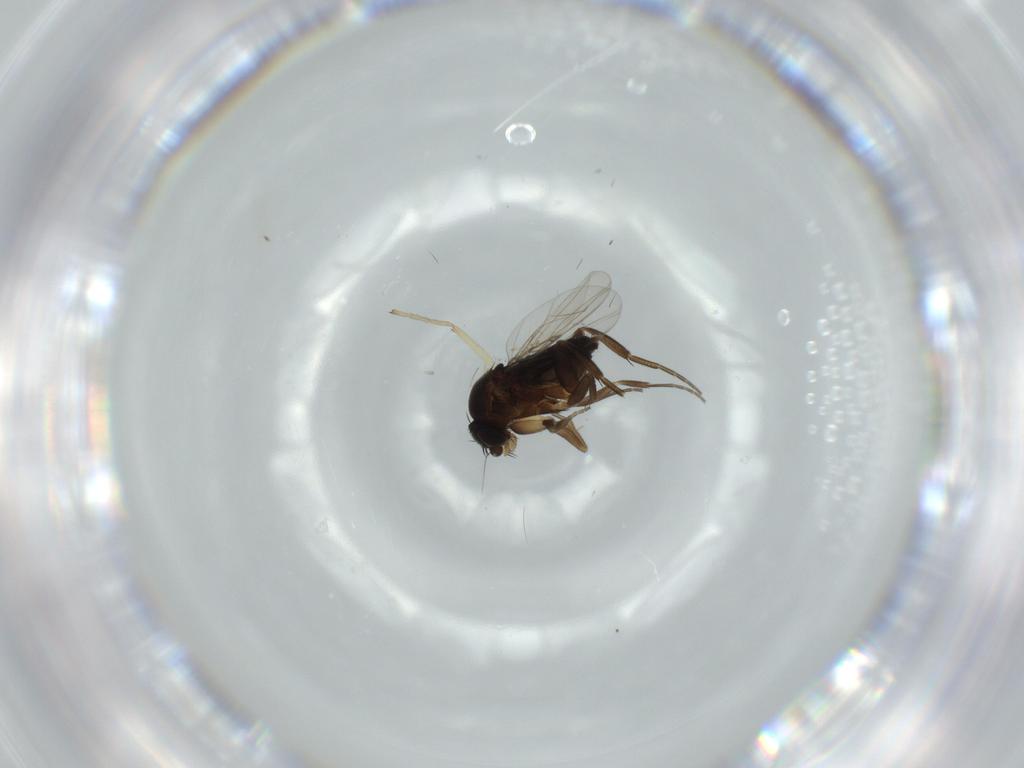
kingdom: Animalia
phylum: Arthropoda
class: Insecta
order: Diptera
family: Phoridae
